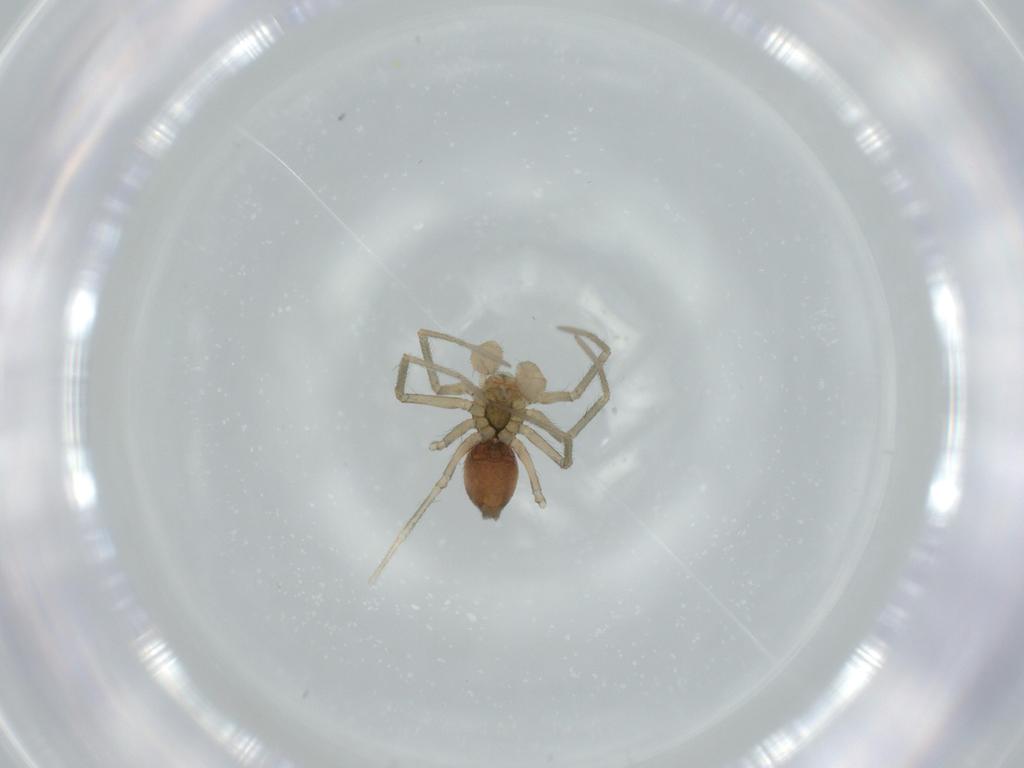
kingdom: Animalia
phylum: Arthropoda
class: Arachnida
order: Araneae
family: Linyphiidae
